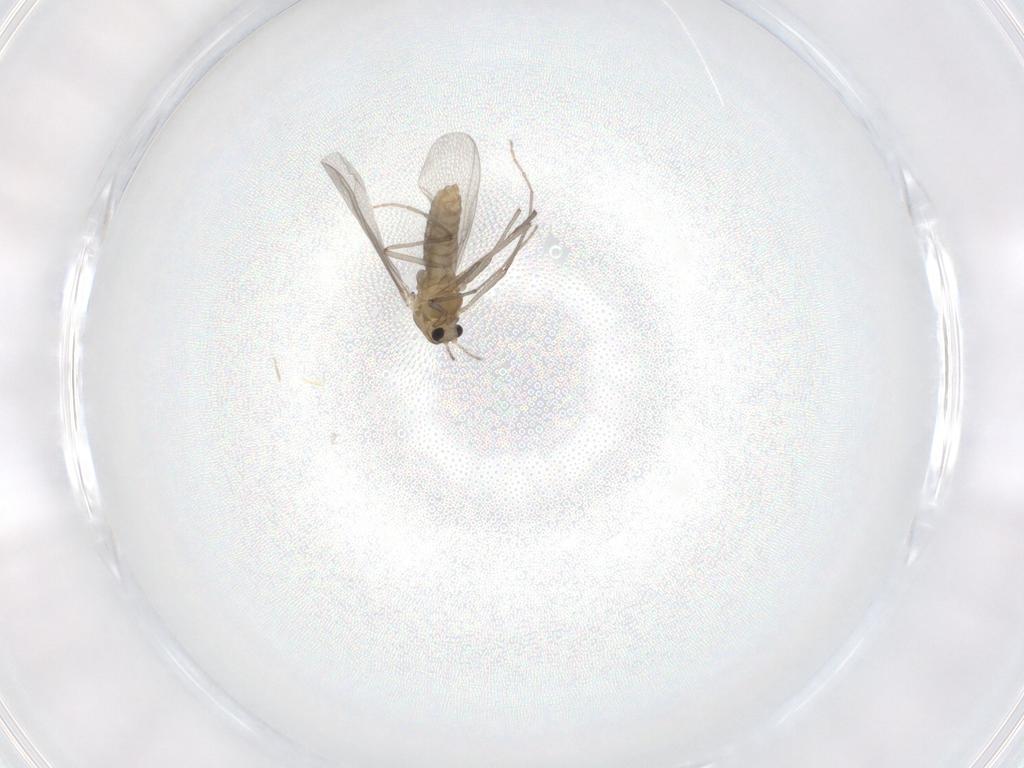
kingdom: Animalia
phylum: Arthropoda
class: Insecta
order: Diptera
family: Chironomidae
